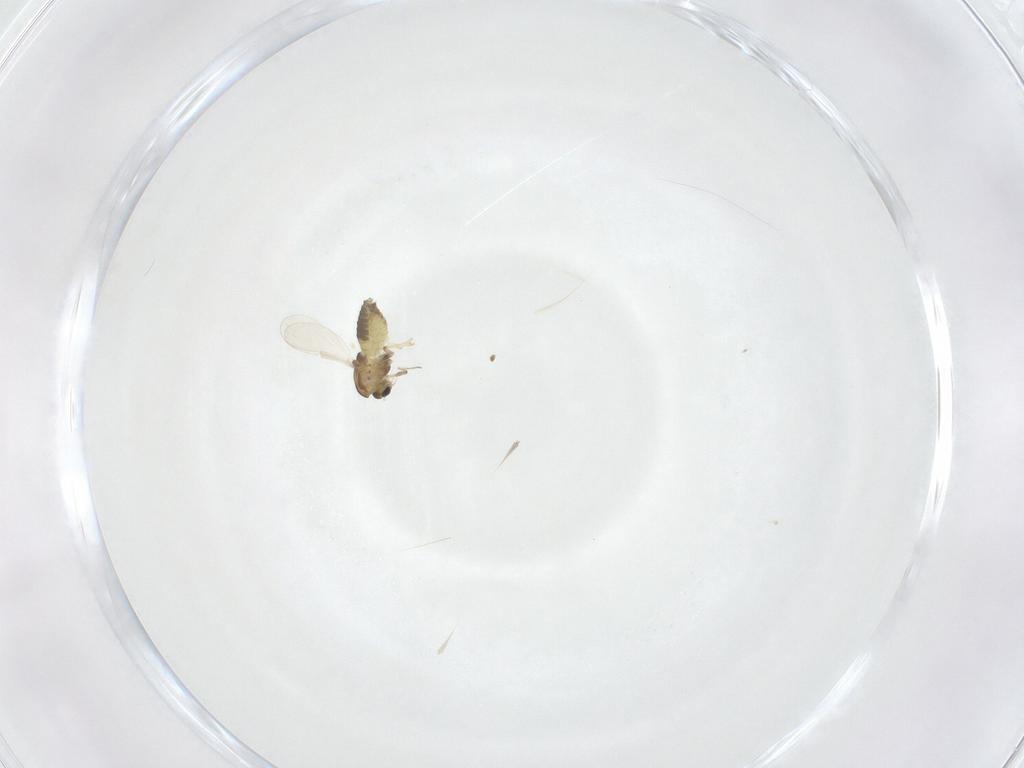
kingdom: Animalia
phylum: Arthropoda
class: Insecta
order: Diptera
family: Chironomidae
